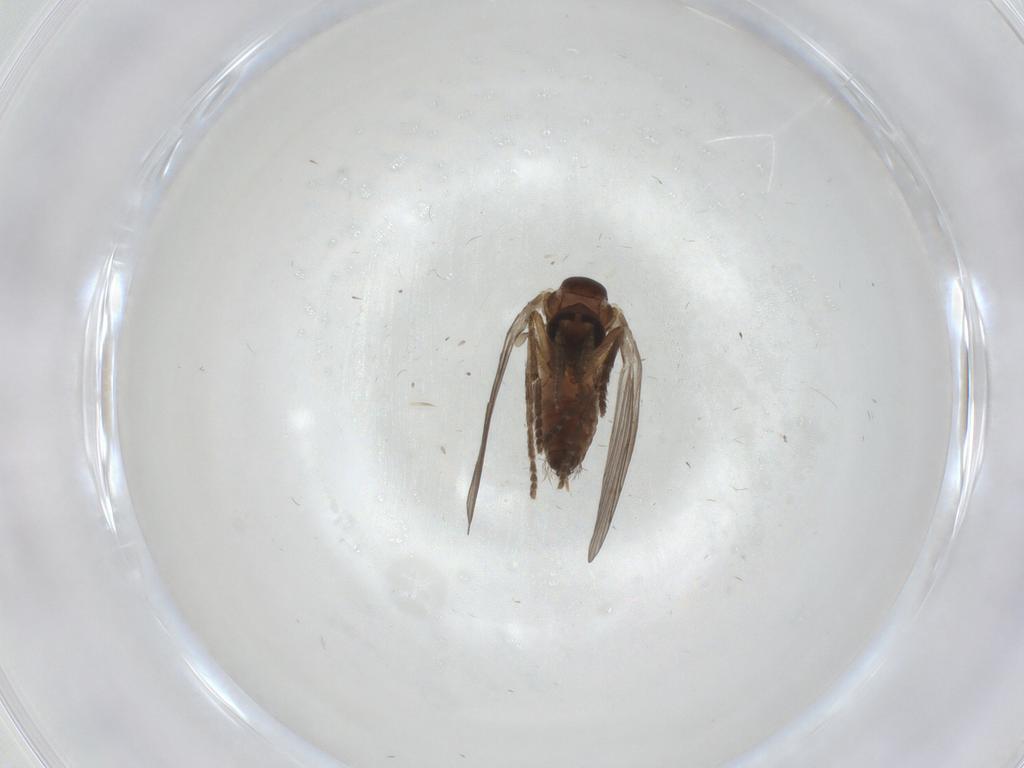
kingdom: Animalia
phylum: Arthropoda
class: Insecta
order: Diptera
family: Psychodidae
